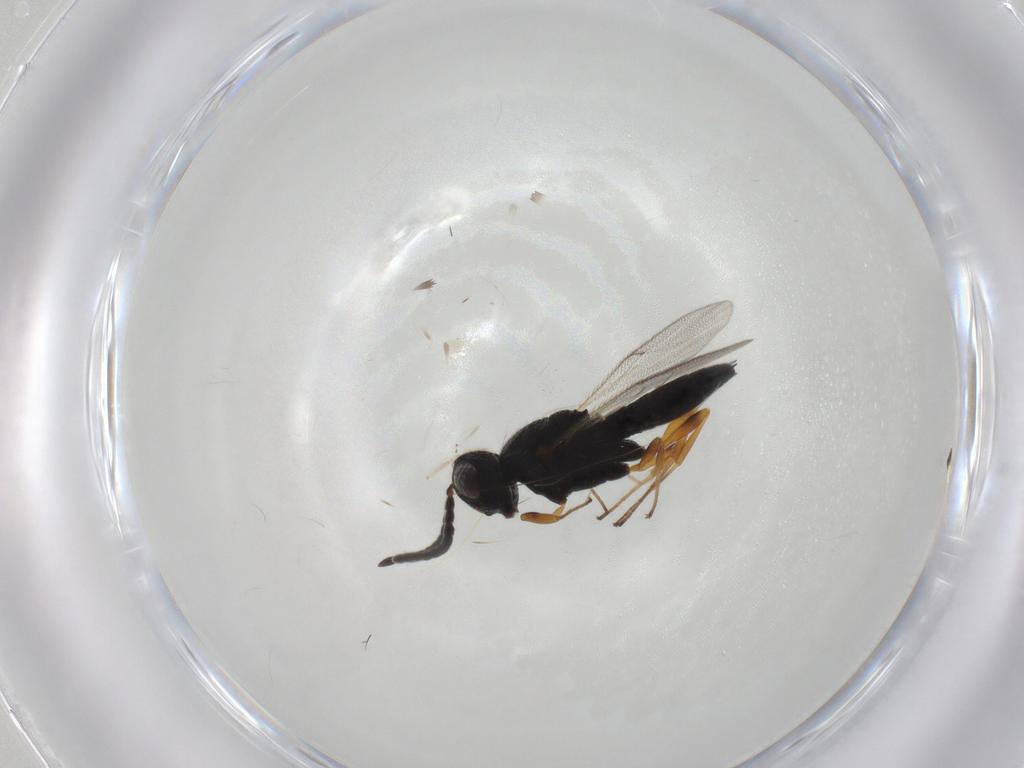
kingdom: Animalia
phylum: Arthropoda
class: Insecta
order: Hymenoptera
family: Scelionidae
